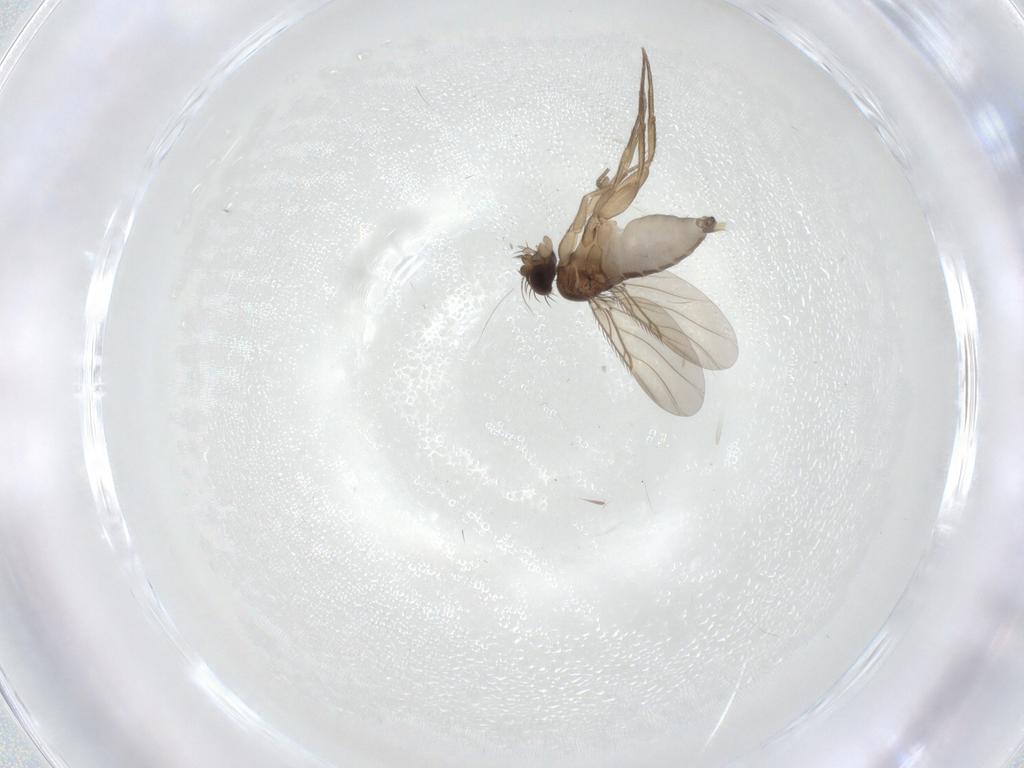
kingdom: Animalia
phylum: Arthropoda
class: Insecta
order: Diptera
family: Phoridae
